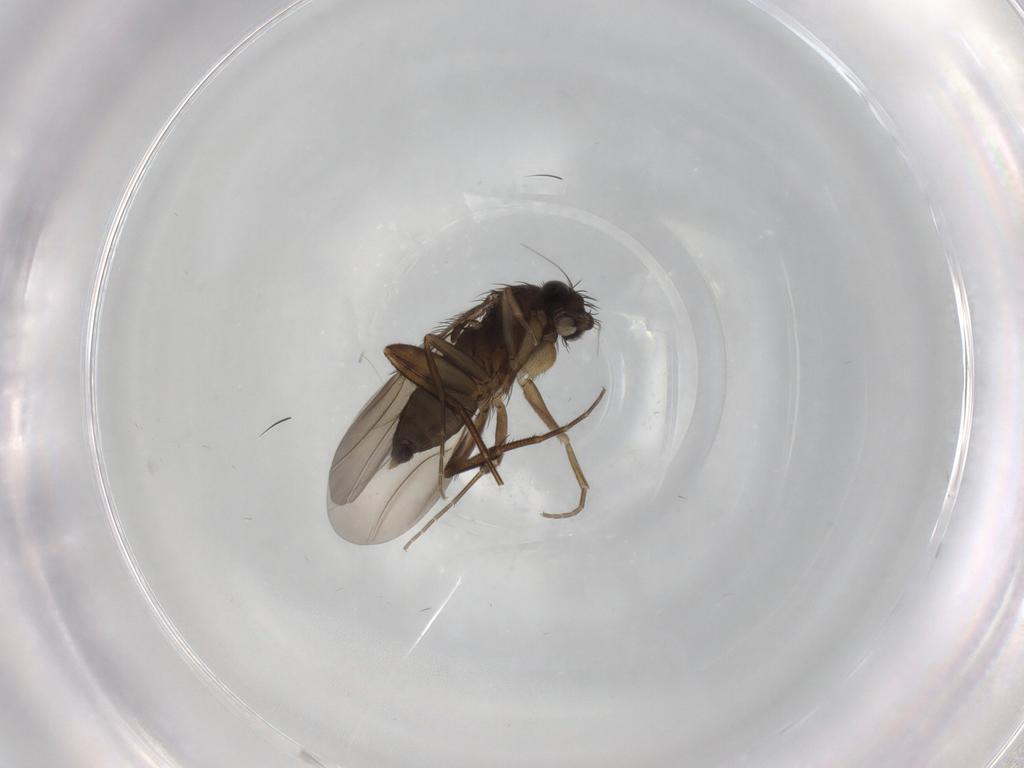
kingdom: Animalia
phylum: Arthropoda
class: Insecta
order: Diptera
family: Phoridae
